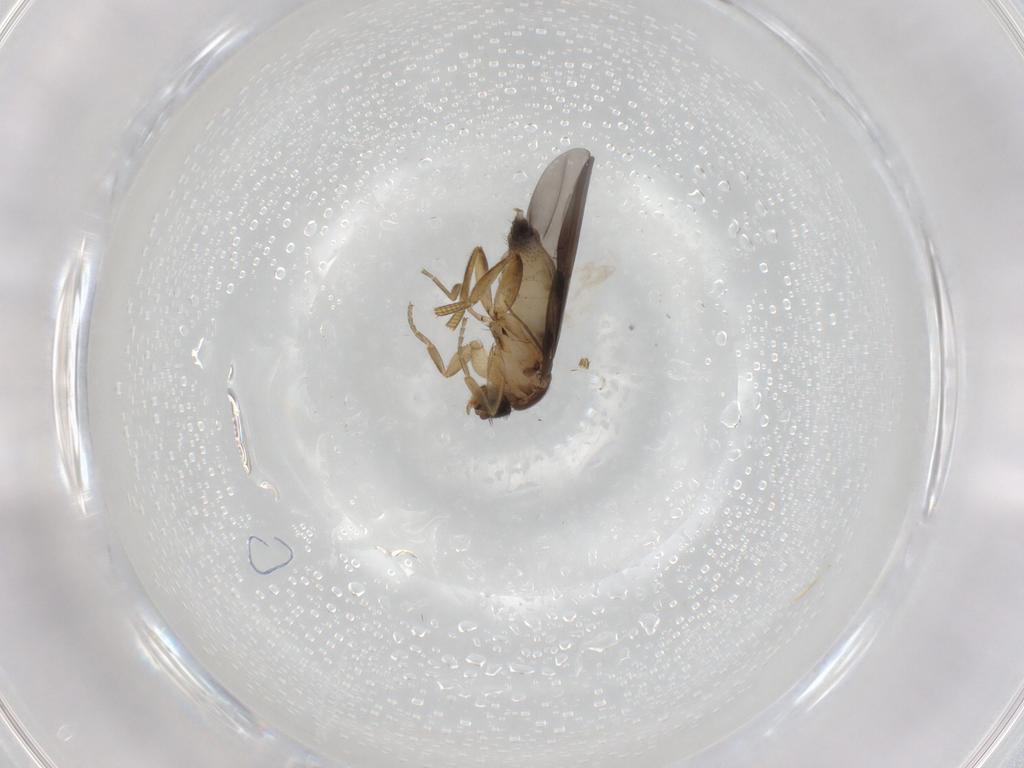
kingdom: Animalia
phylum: Arthropoda
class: Insecta
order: Diptera
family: Phoridae
